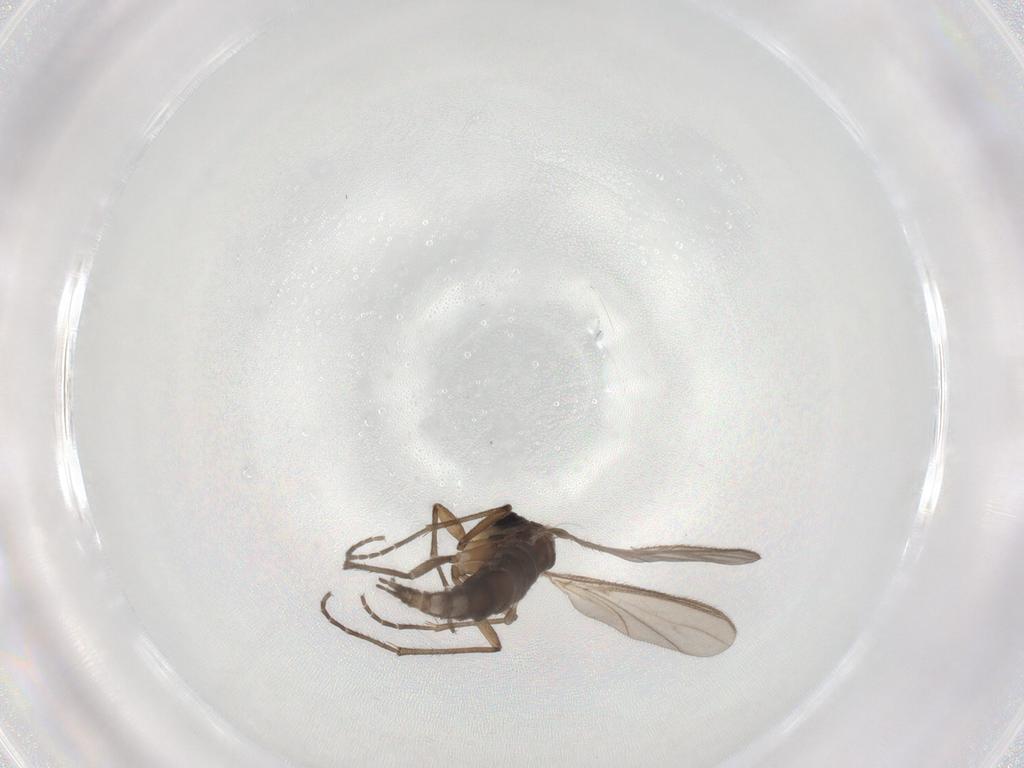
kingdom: Animalia
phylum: Arthropoda
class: Insecta
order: Diptera
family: Sciaridae
